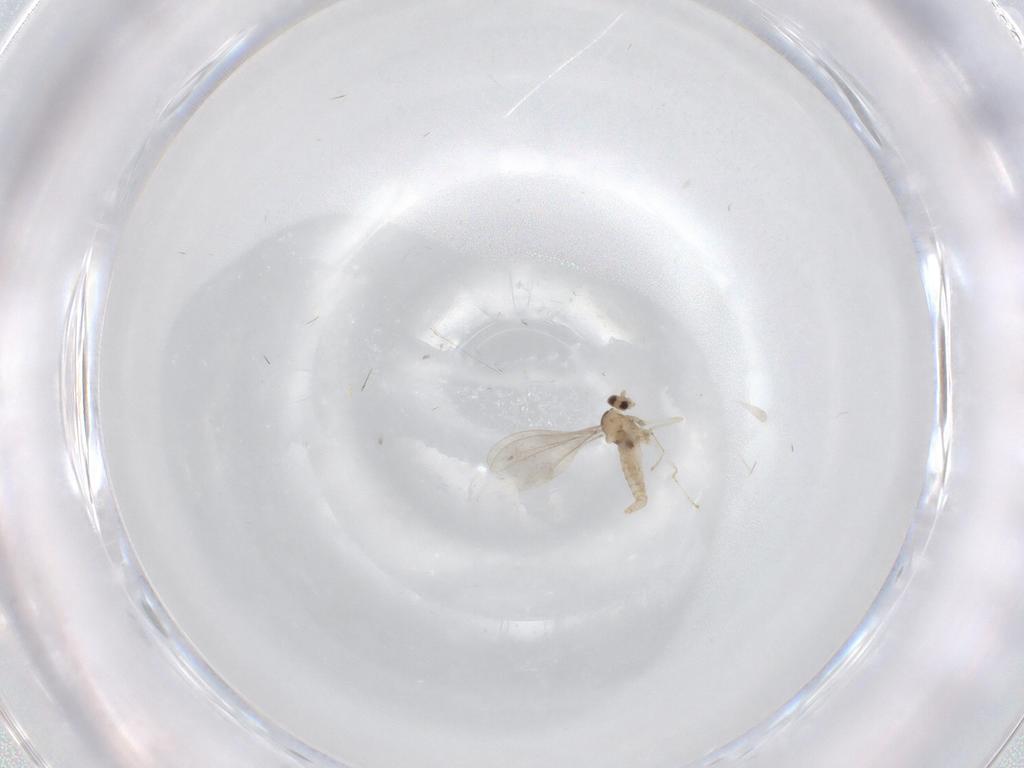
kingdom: Animalia
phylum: Arthropoda
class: Insecta
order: Diptera
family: Cecidomyiidae
